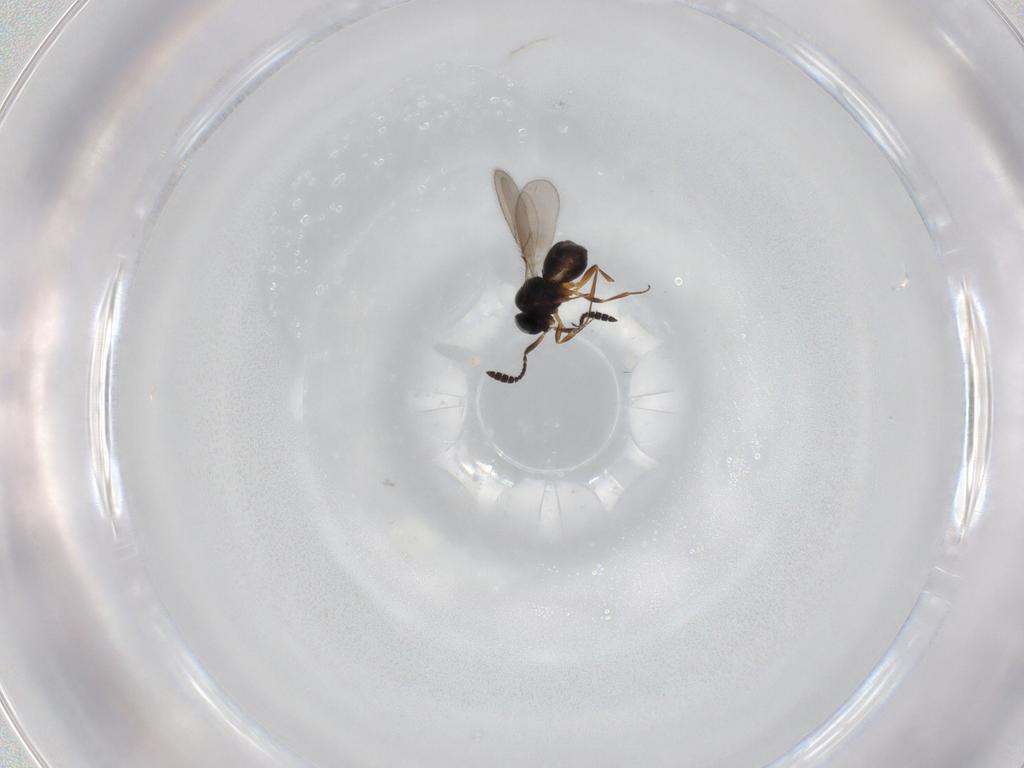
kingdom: Animalia
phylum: Arthropoda
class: Insecta
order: Hymenoptera
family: Scelionidae
